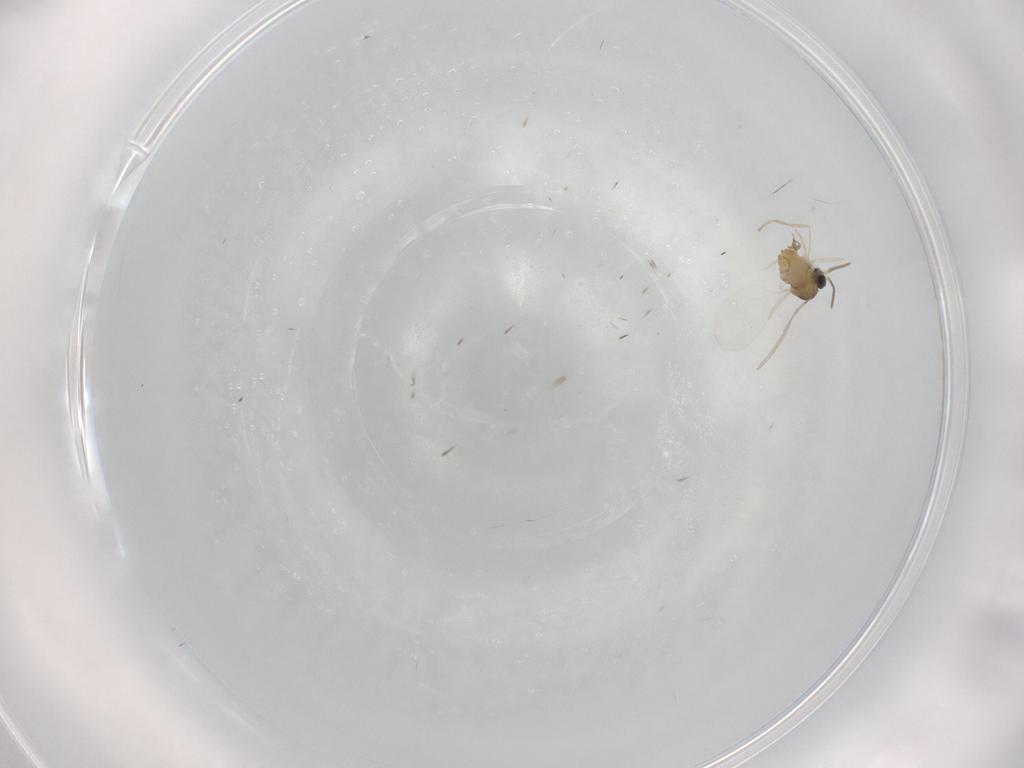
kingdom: Animalia
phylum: Arthropoda
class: Insecta
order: Diptera
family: Cecidomyiidae
